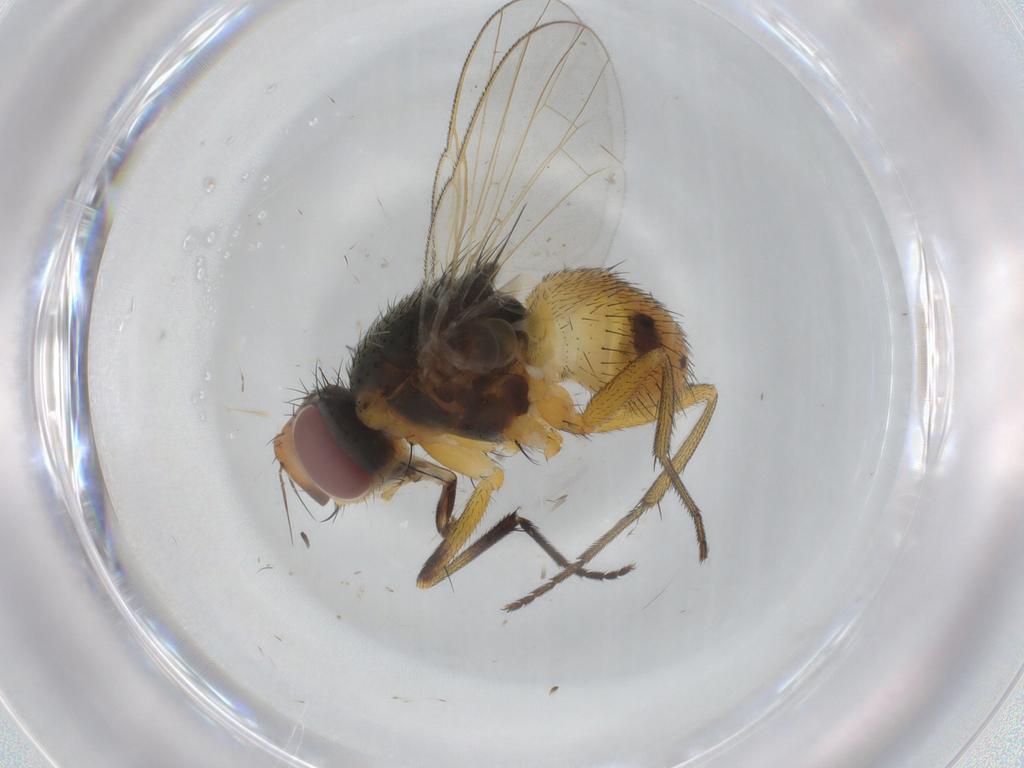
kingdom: Animalia
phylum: Arthropoda
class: Insecta
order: Diptera
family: Muscidae
